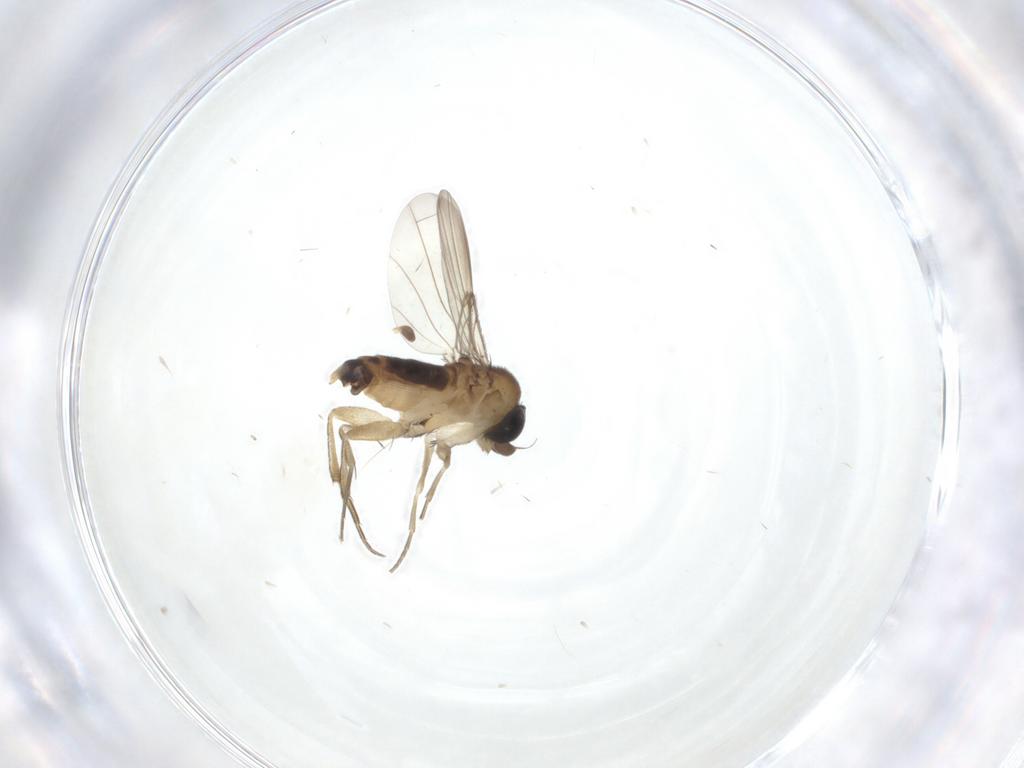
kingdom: Animalia
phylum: Arthropoda
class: Insecta
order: Diptera
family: Phoridae
